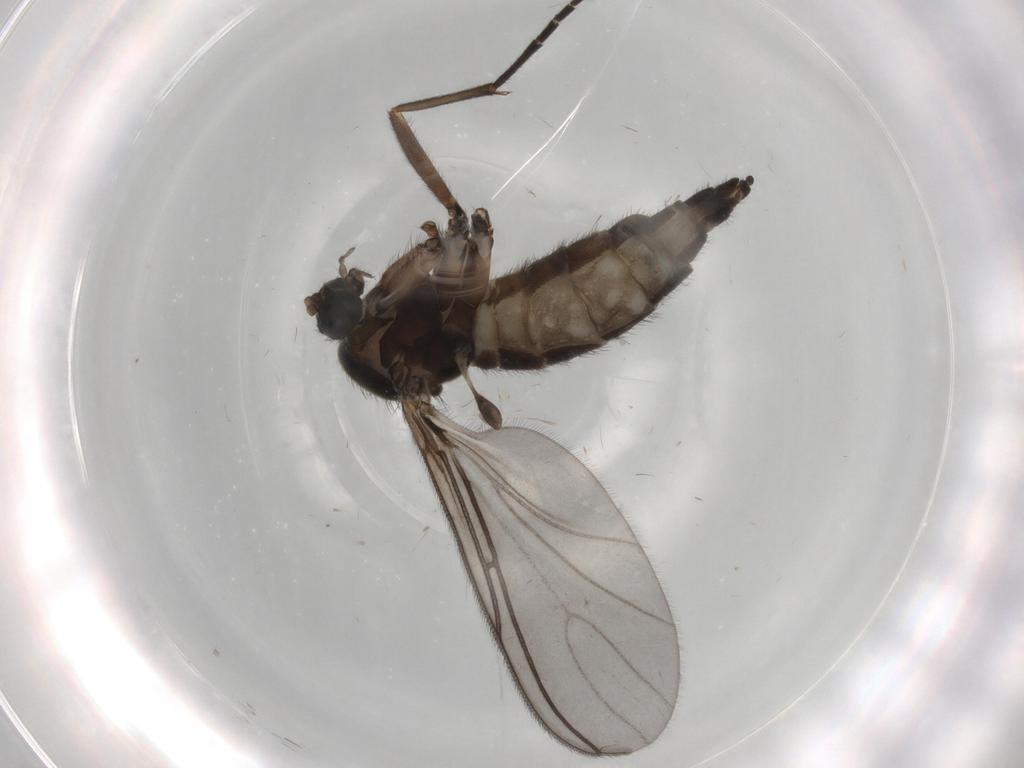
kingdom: Animalia
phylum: Arthropoda
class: Insecta
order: Diptera
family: Sciaridae
